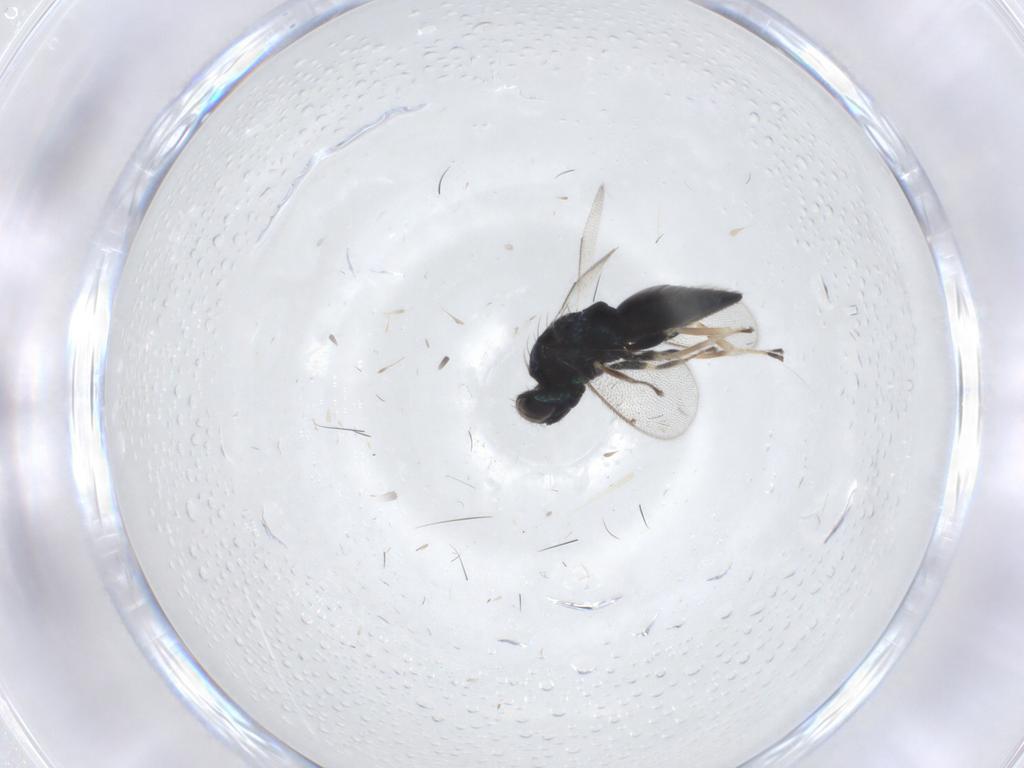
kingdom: Animalia
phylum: Arthropoda
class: Insecta
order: Hymenoptera
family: Eulophidae
